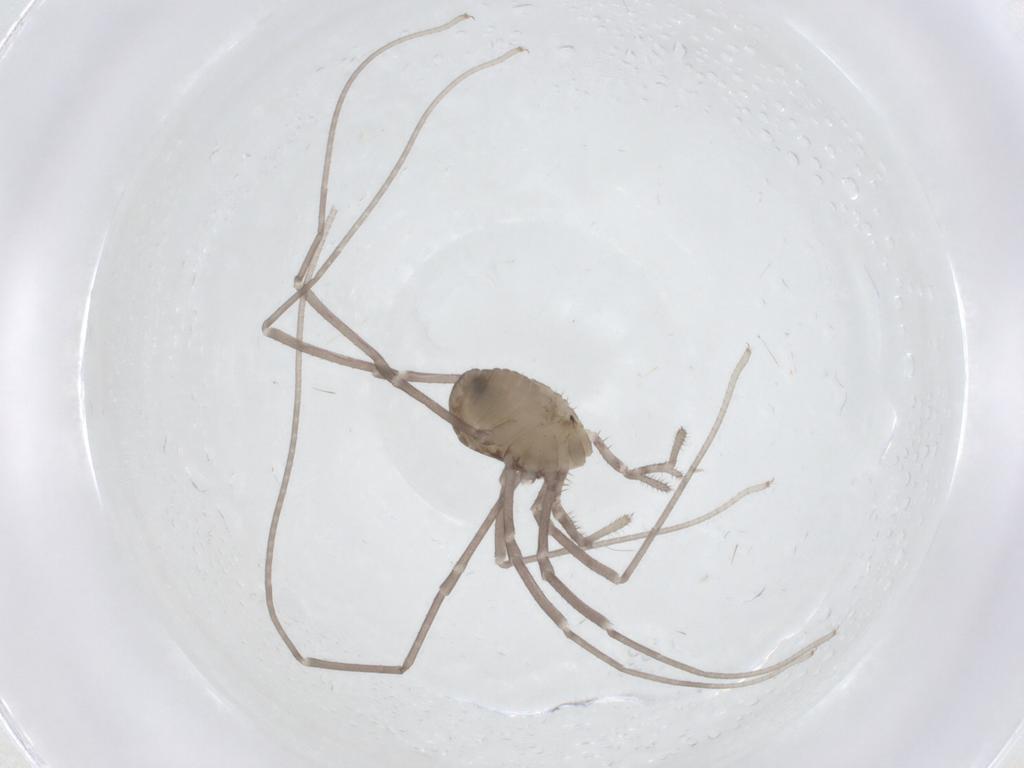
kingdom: Animalia
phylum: Arthropoda
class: Arachnida
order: Opiliones
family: Sclerosomatidae
